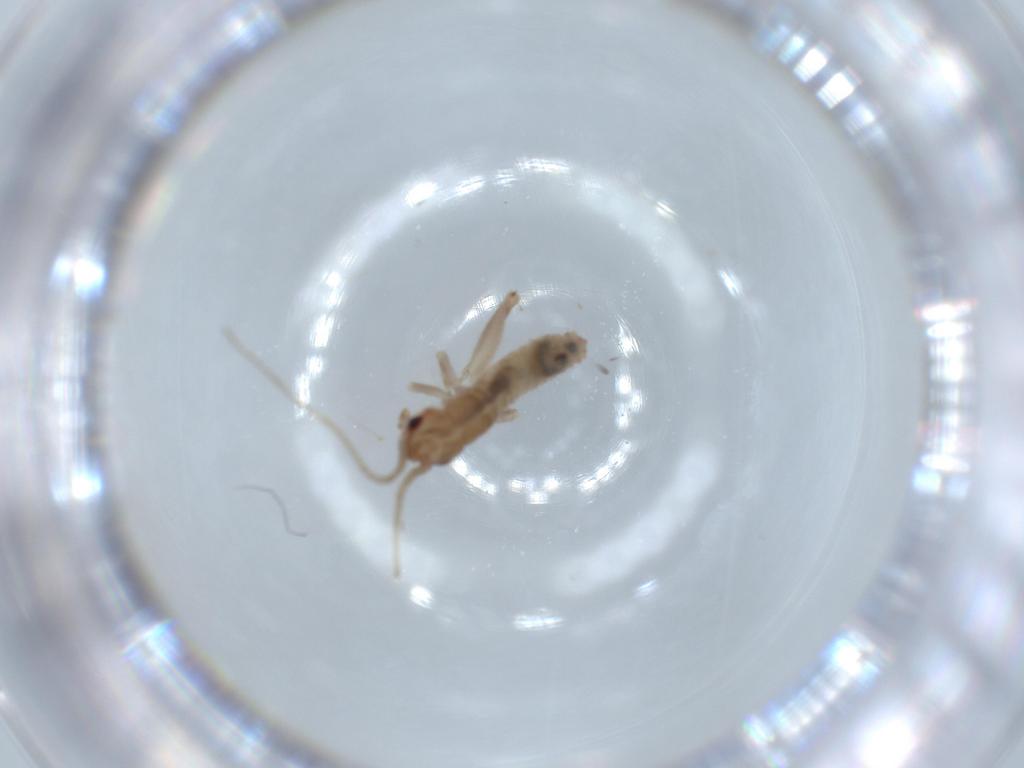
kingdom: Animalia
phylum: Arthropoda
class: Insecta
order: Orthoptera
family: Mogoplistidae
